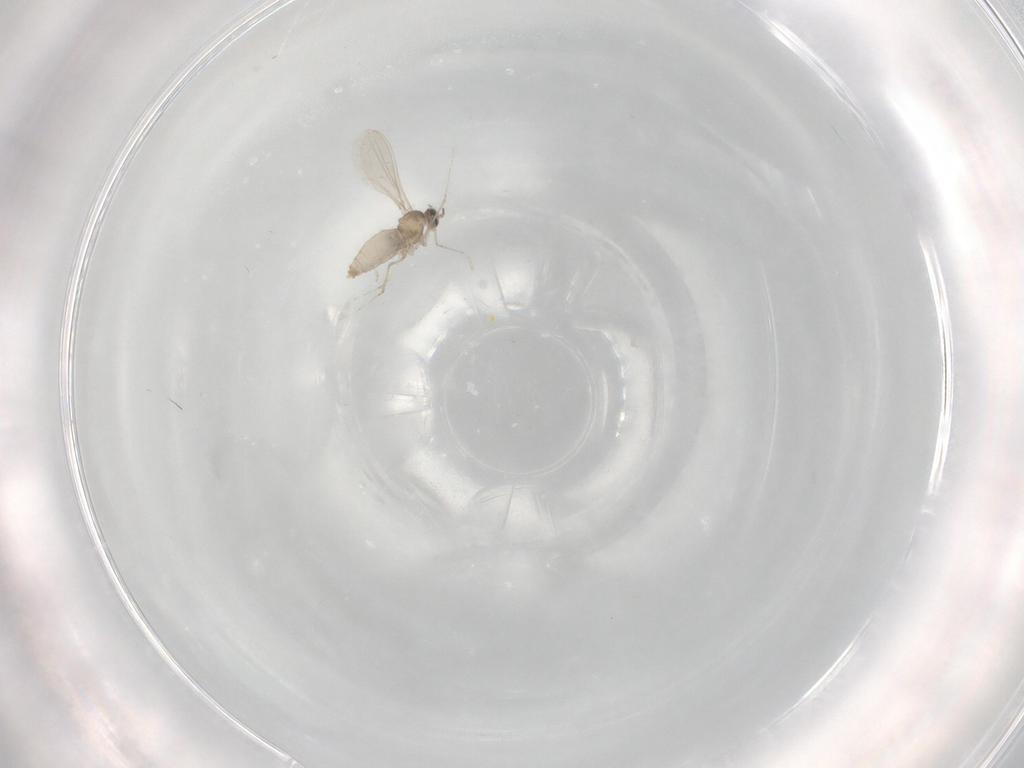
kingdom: Animalia
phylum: Arthropoda
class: Insecta
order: Diptera
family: Cecidomyiidae
